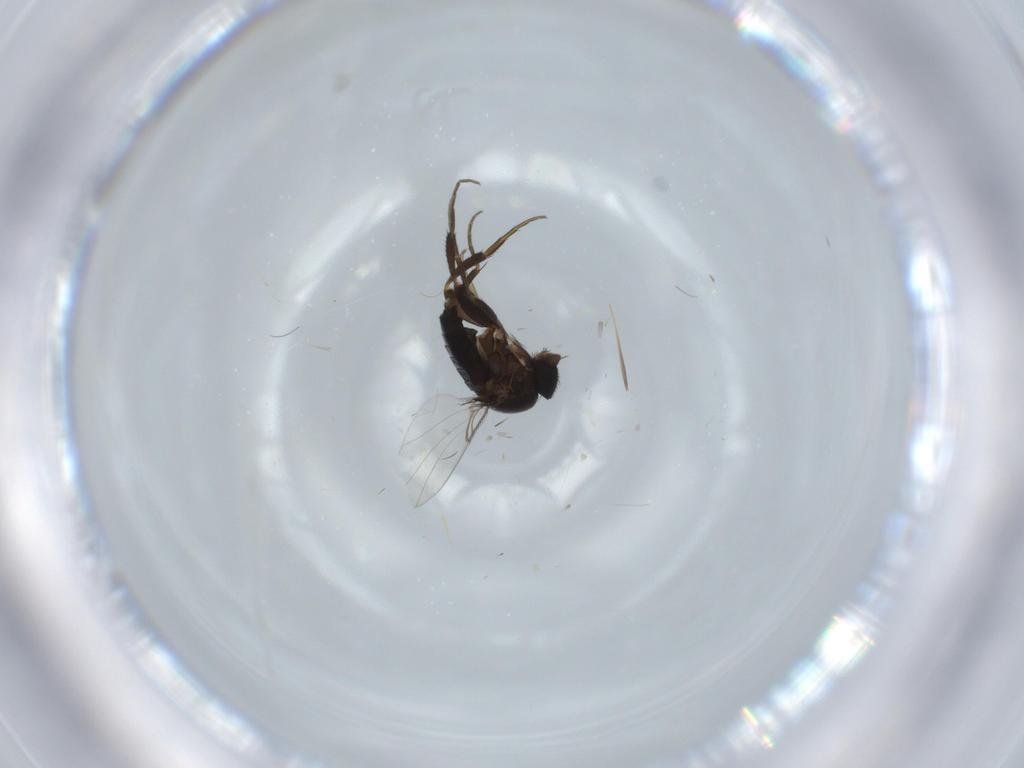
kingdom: Animalia
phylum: Arthropoda
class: Insecta
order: Diptera
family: Phoridae
